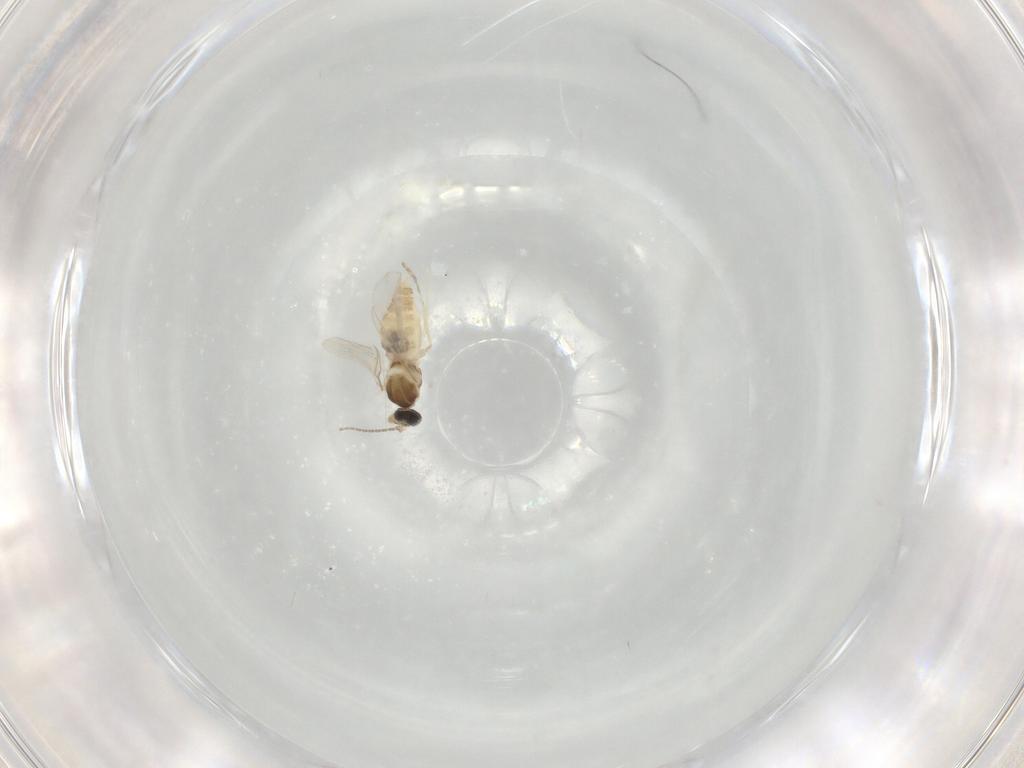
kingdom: Animalia
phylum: Arthropoda
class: Insecta
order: Diptera
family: Cecidomyiidae
